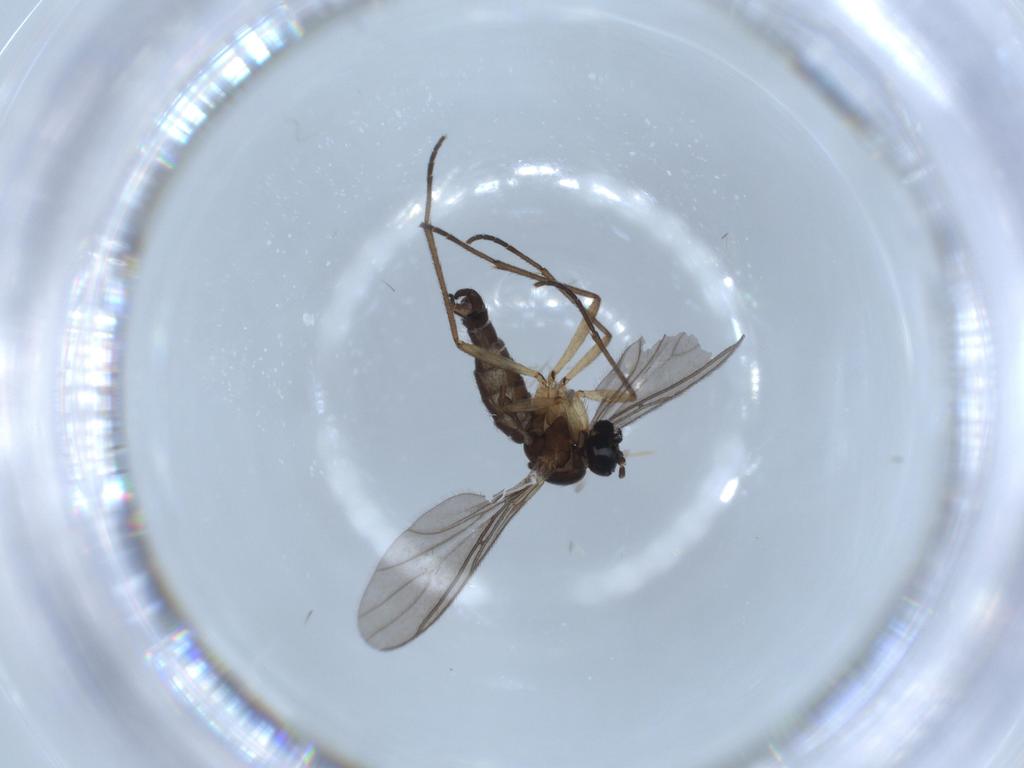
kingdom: Animalia
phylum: Arthropoda
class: Insecta
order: Diptera
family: Sciaridae
